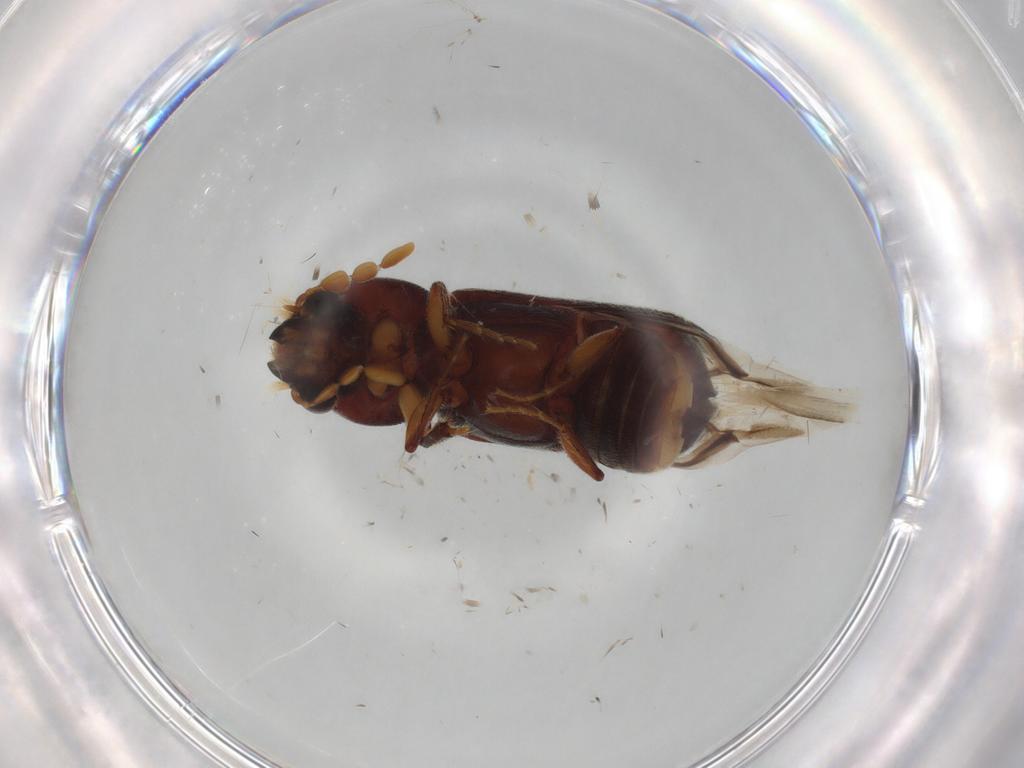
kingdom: Animalia
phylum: Arthropoda
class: Insecta
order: Coleoptera
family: Bostrichidae
